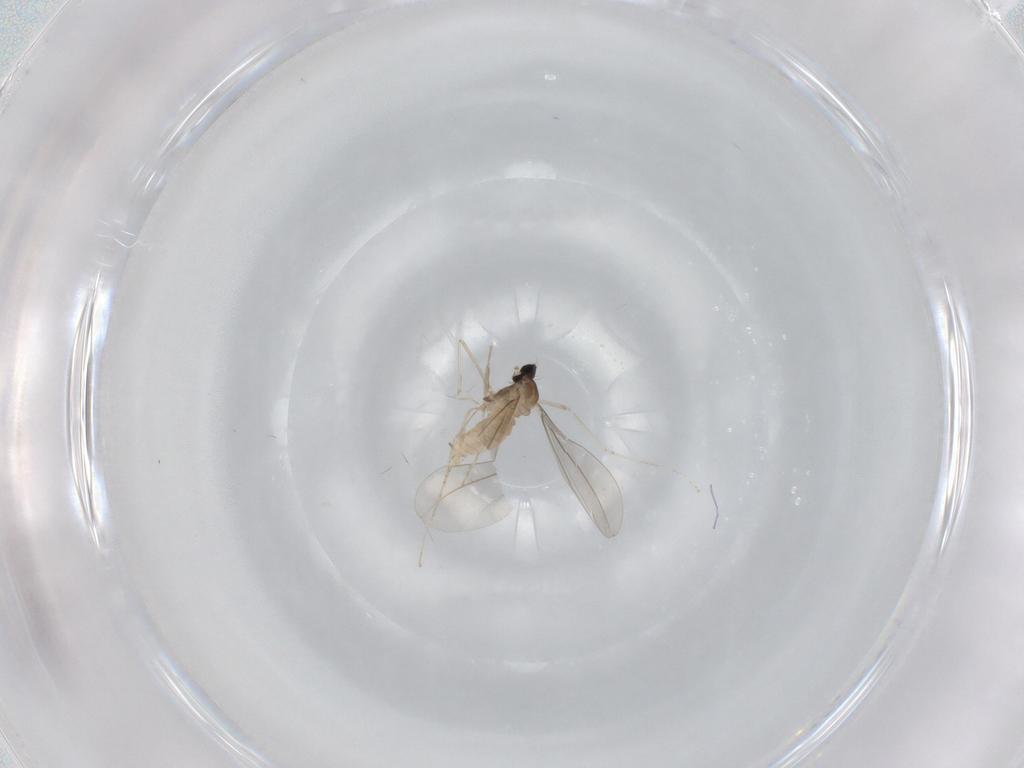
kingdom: Animalia
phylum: Arthropoda
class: Insecta
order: Diptera
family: Cecidomyiidae
